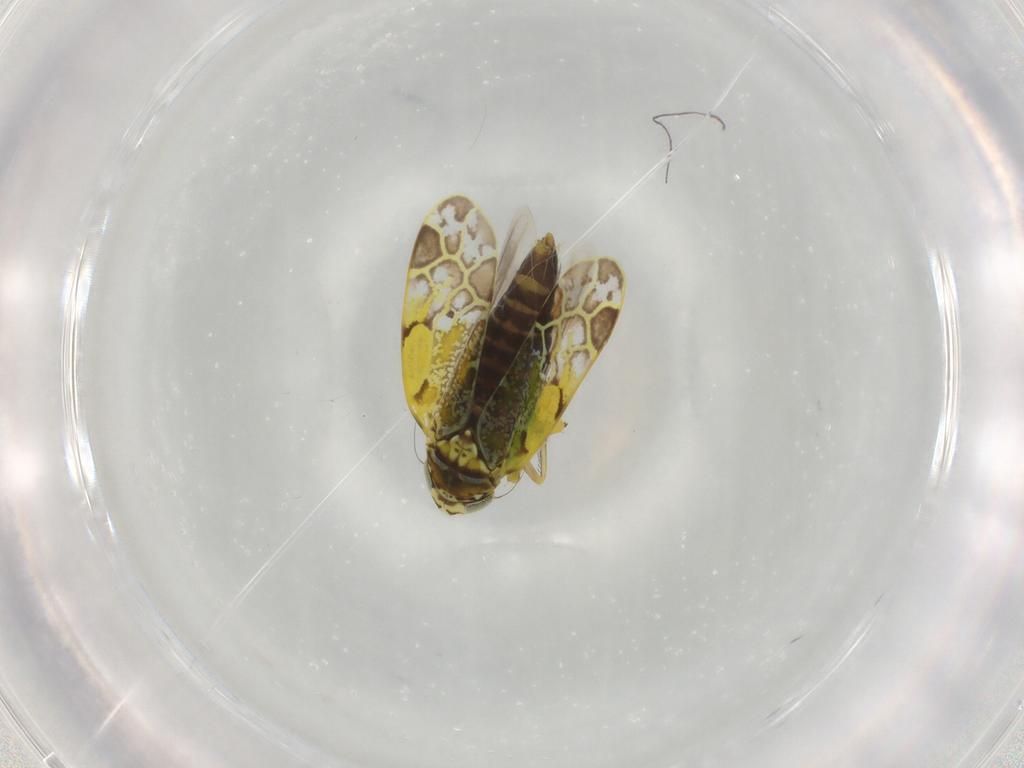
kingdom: Animalia
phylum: Arthropoda
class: Insecta
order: Hemiptera
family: Cicadellidae
